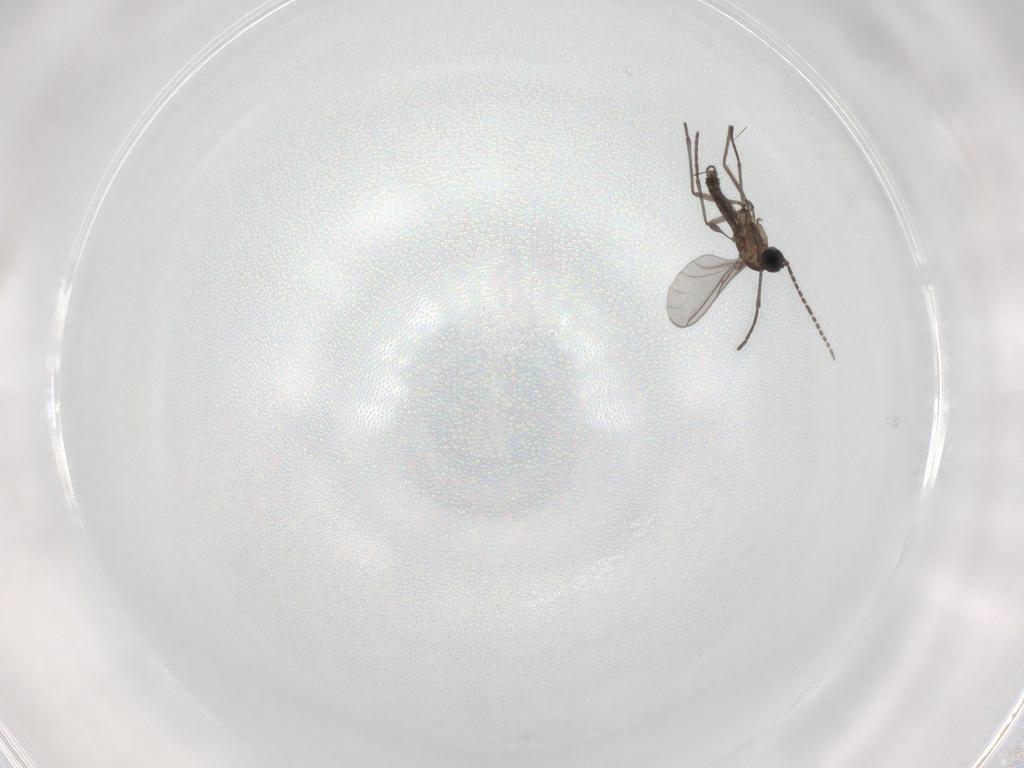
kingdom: Animalia
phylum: Arthropoda
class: Insecta
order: Diptera
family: Sciaridae
